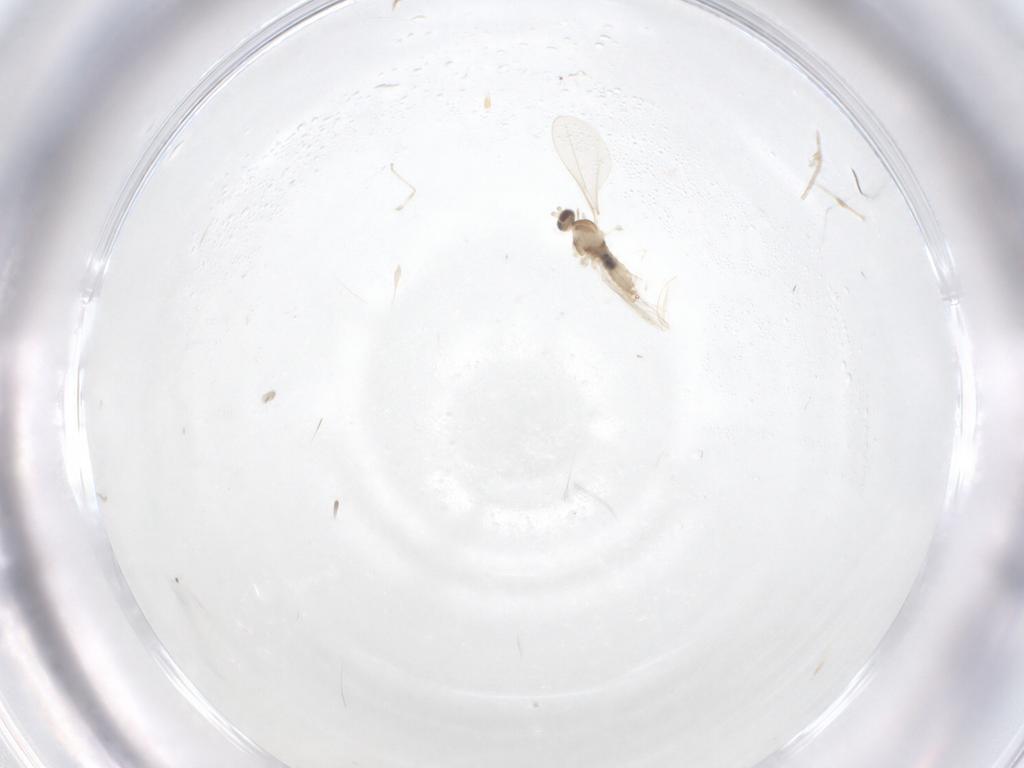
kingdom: Animalia
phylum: Arthropoda
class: Insecta
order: Diptera
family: Cecidomyiidae
